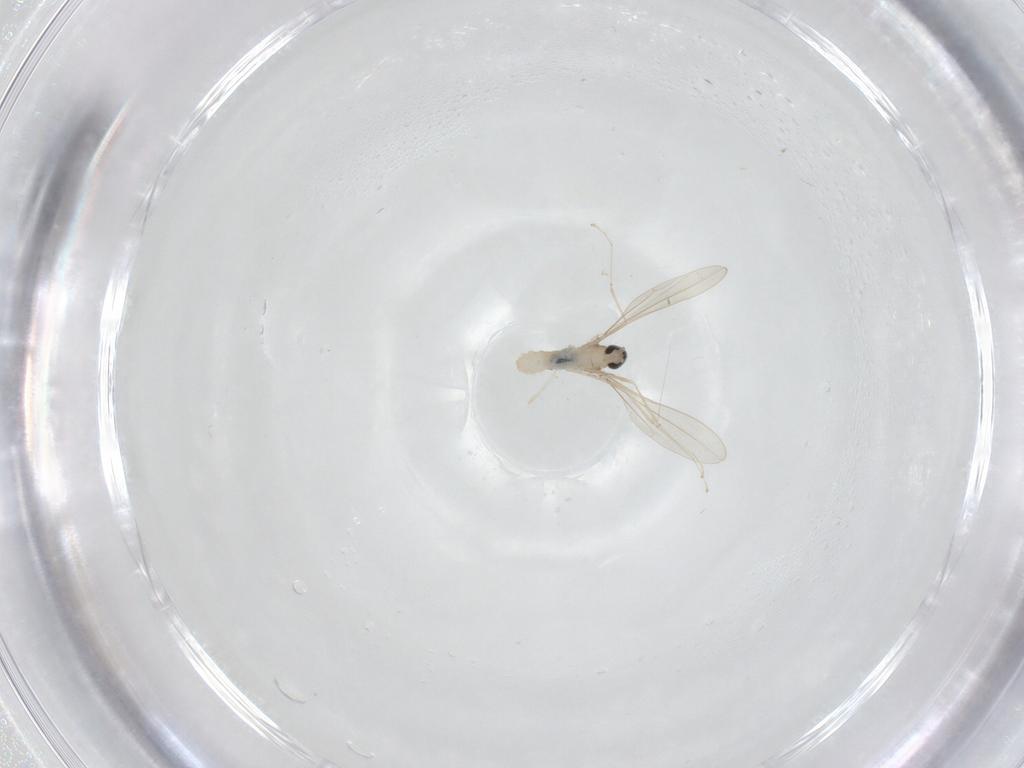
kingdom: Animalia
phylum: Arthropoda
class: Insecta
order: Diptera
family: Cecidomyiidae
